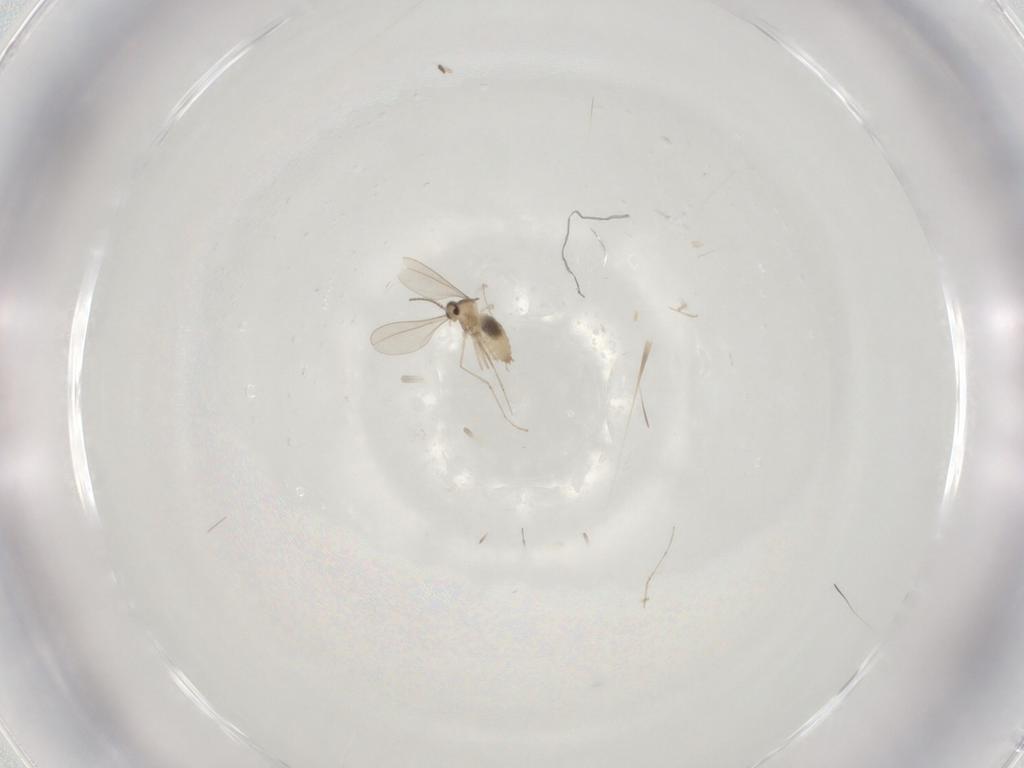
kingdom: Animalia
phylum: Arthropoda
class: Insecta
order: Diptera
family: Cecidomyiidae
